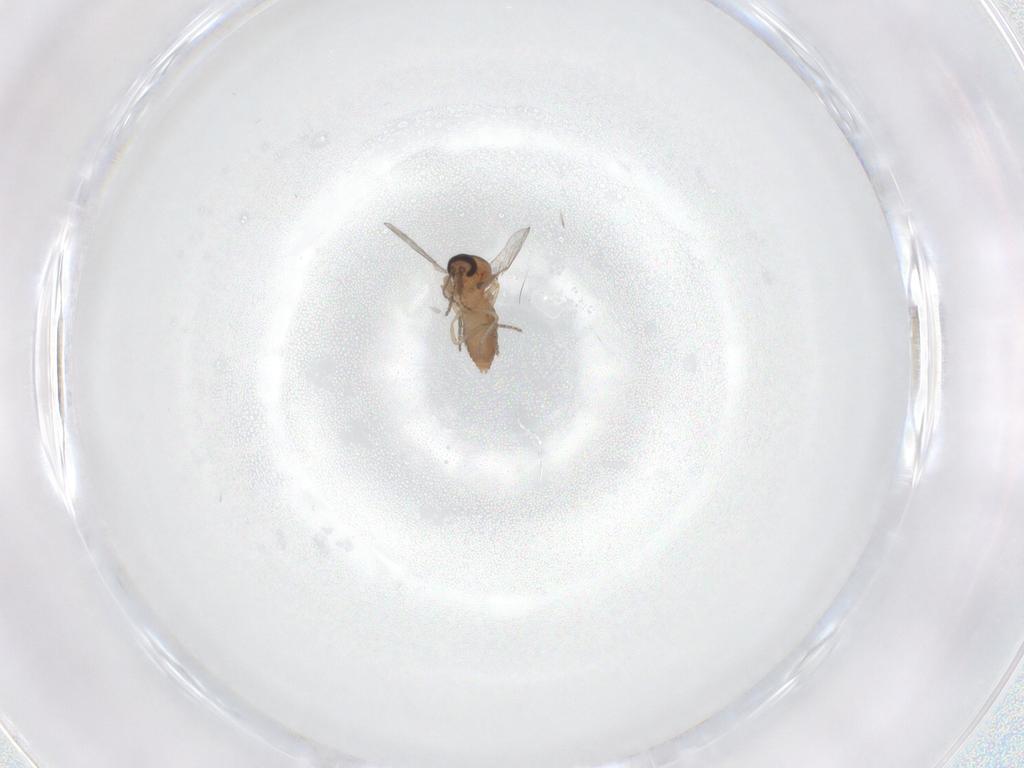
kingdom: Animalia
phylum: Arthropoda
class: Insecta
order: Diptera
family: Ceratopogonidae
